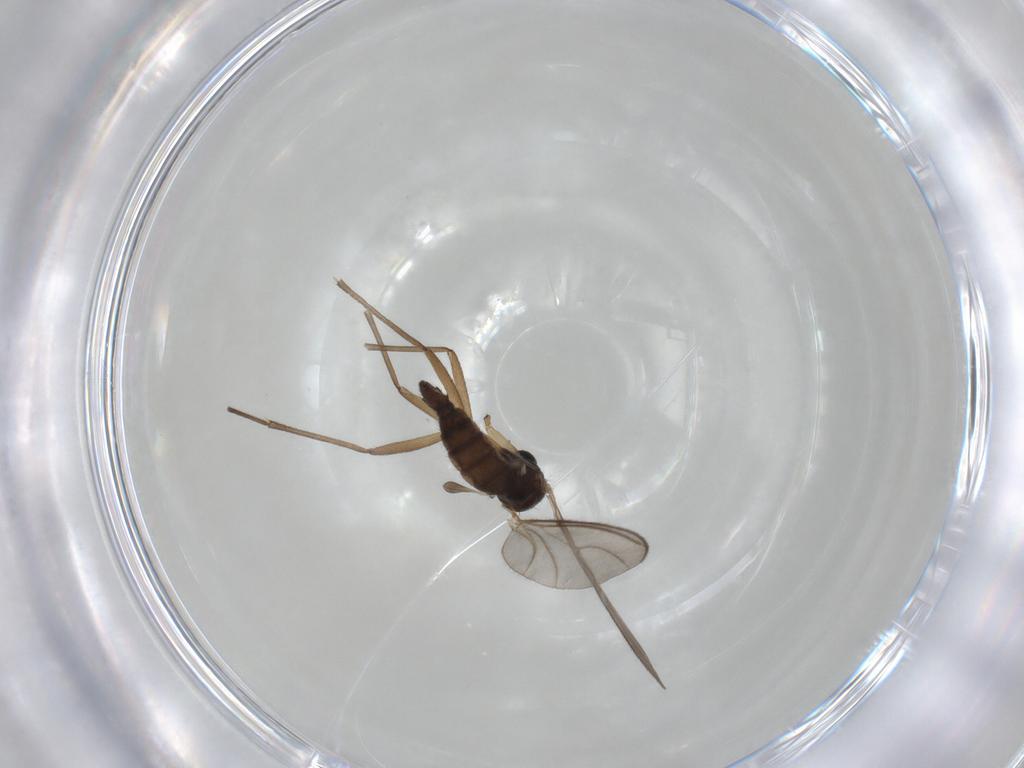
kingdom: Animalia
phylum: Arthropoda
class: Insecta
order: Diptera
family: Sciaridae
